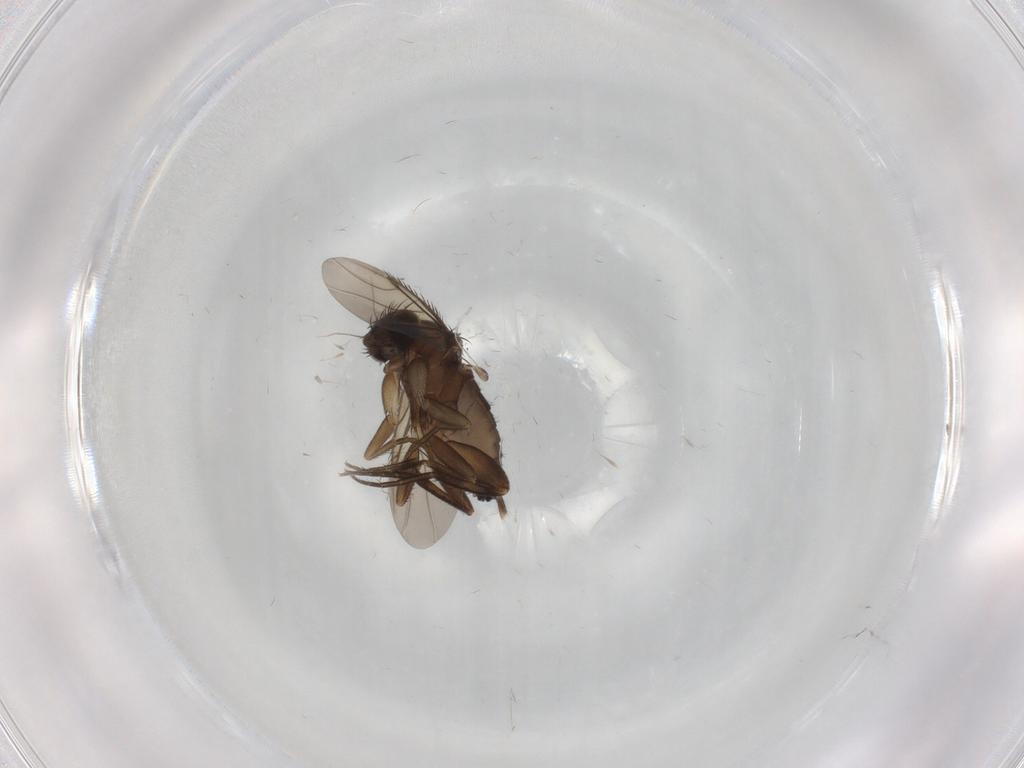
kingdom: Animalia
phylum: Arthropoda
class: Insecta
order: Diptera
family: Phoridae
